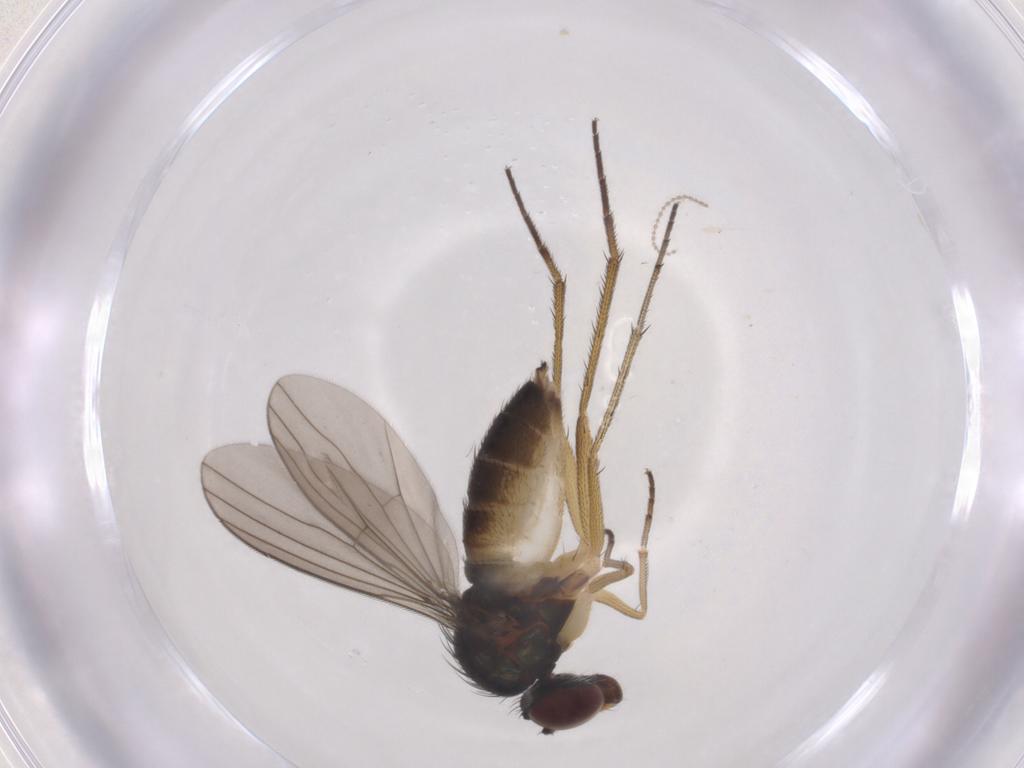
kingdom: Animalia
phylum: Arthropoda
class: Insecta
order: Diptera
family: Dolichopodidae
